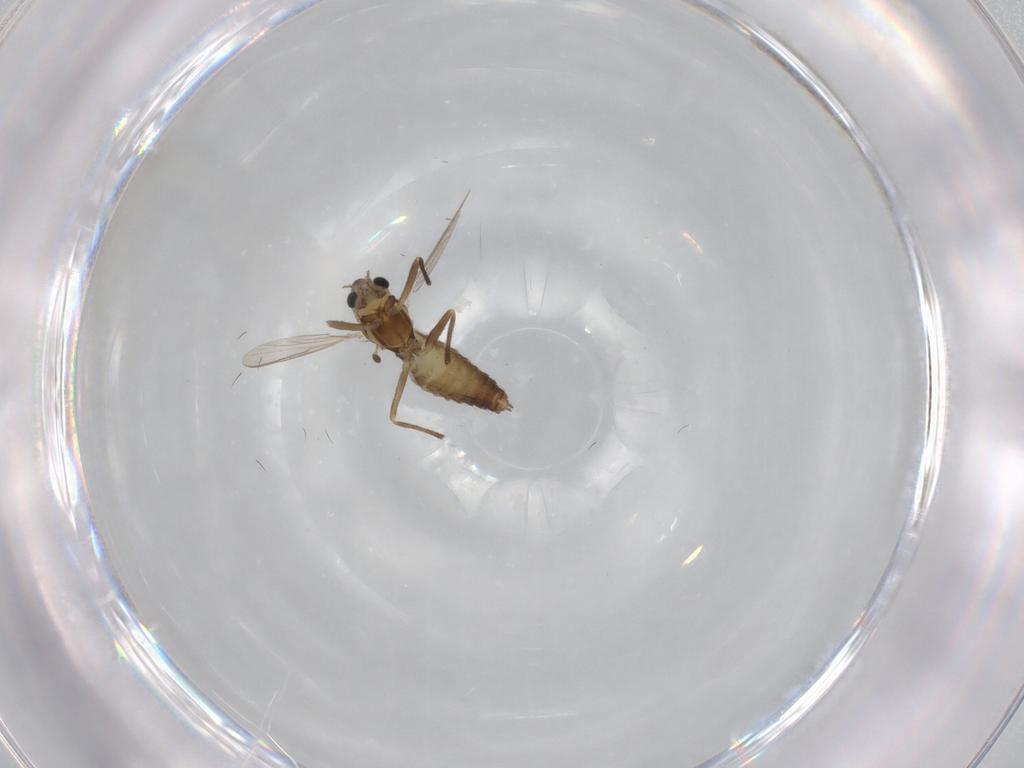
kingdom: Animalia
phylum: Arthropoda
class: Insecta
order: Diptera
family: Chironomidae
